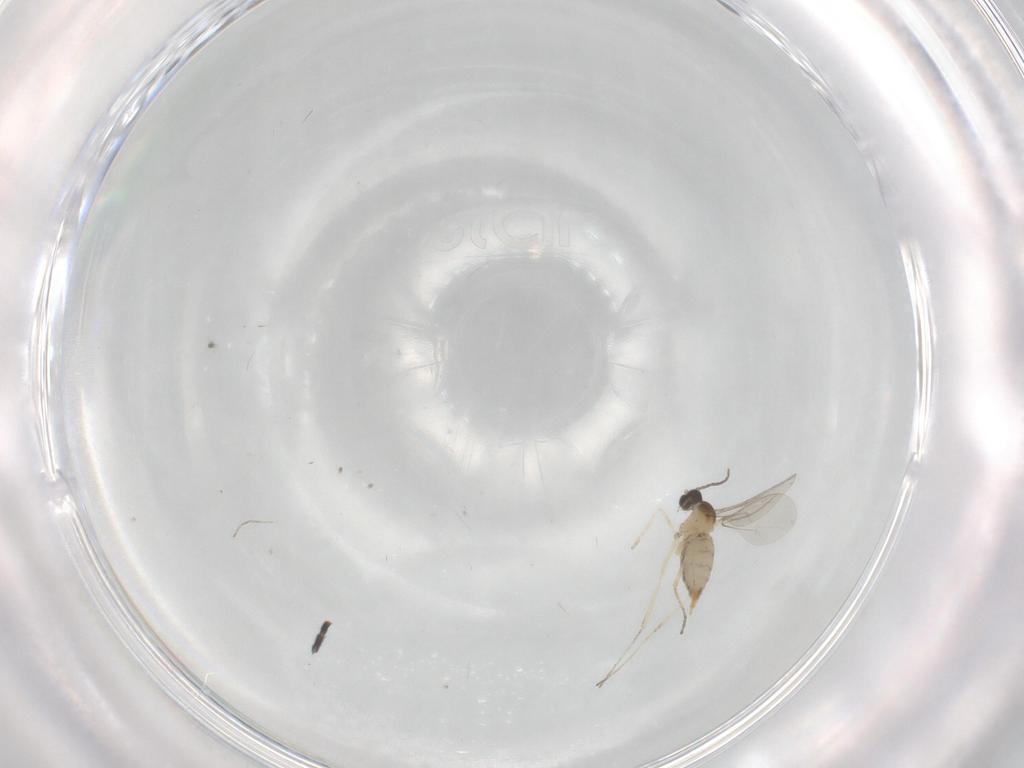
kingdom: Animalia
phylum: Arthropoda
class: Insecta
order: Diptera
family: Cecidomyiidae
